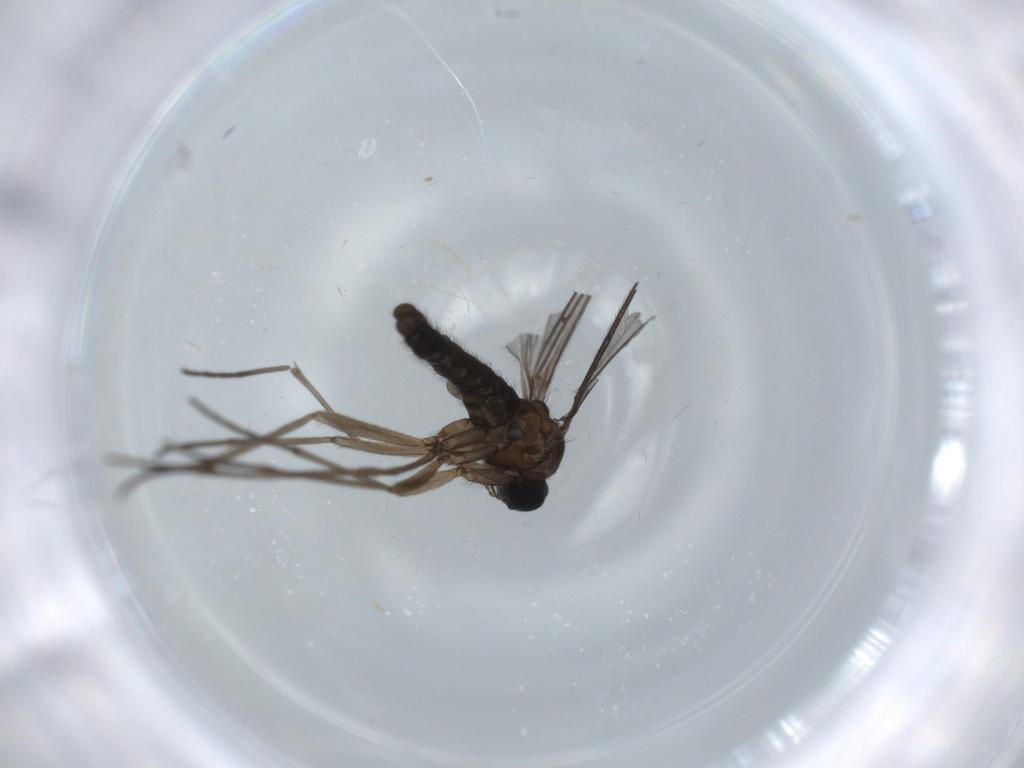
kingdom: Animalia
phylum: Arthropoda
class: Insecta
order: Diptera
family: Sciaridae
